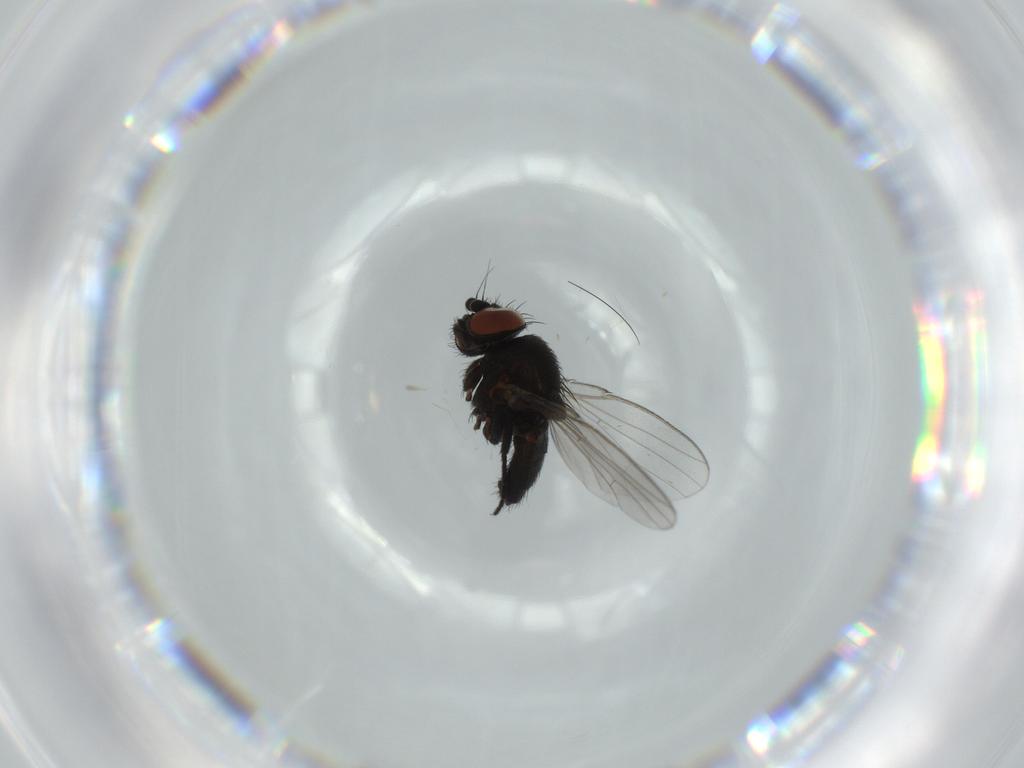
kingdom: Animalia
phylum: Arthropoda
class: Insecta
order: Diptera
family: Milichiidae
